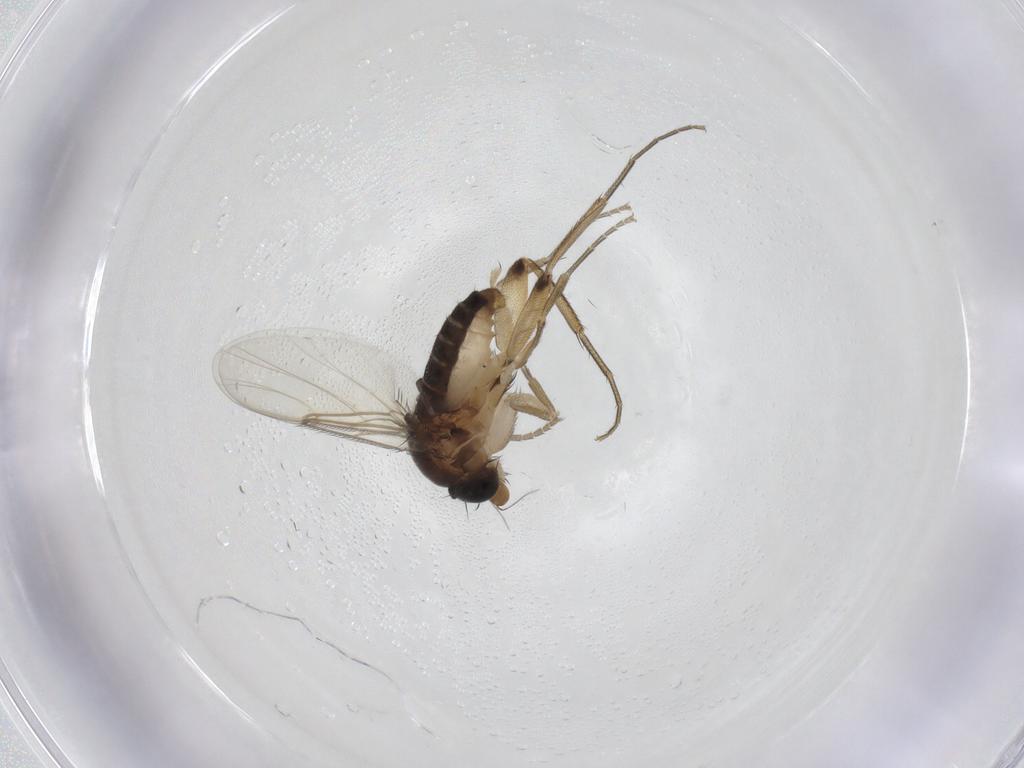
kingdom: Animalia
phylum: Arthropoda
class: Insecta
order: Diptera
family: Phoridae
